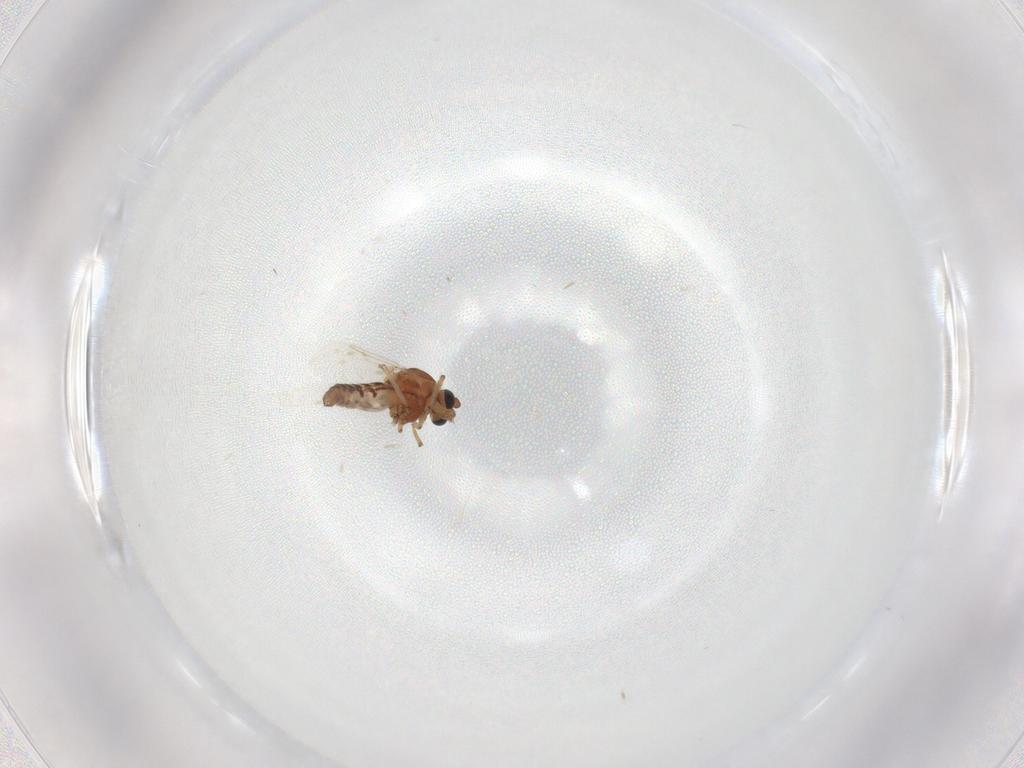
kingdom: Animalia
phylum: Arthropoda
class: Insecta
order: Diptera
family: Ceratopogonidae
